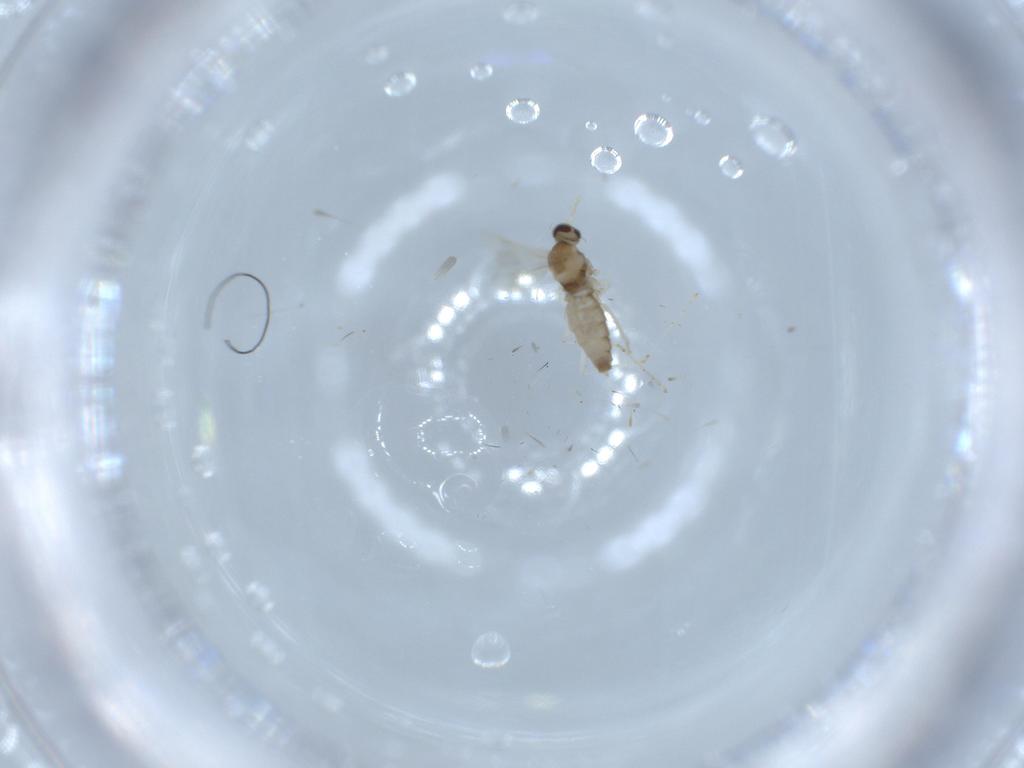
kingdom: Animalia
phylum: Arthropoda
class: Insecta
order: Diptera
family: Cecidomyiidae
